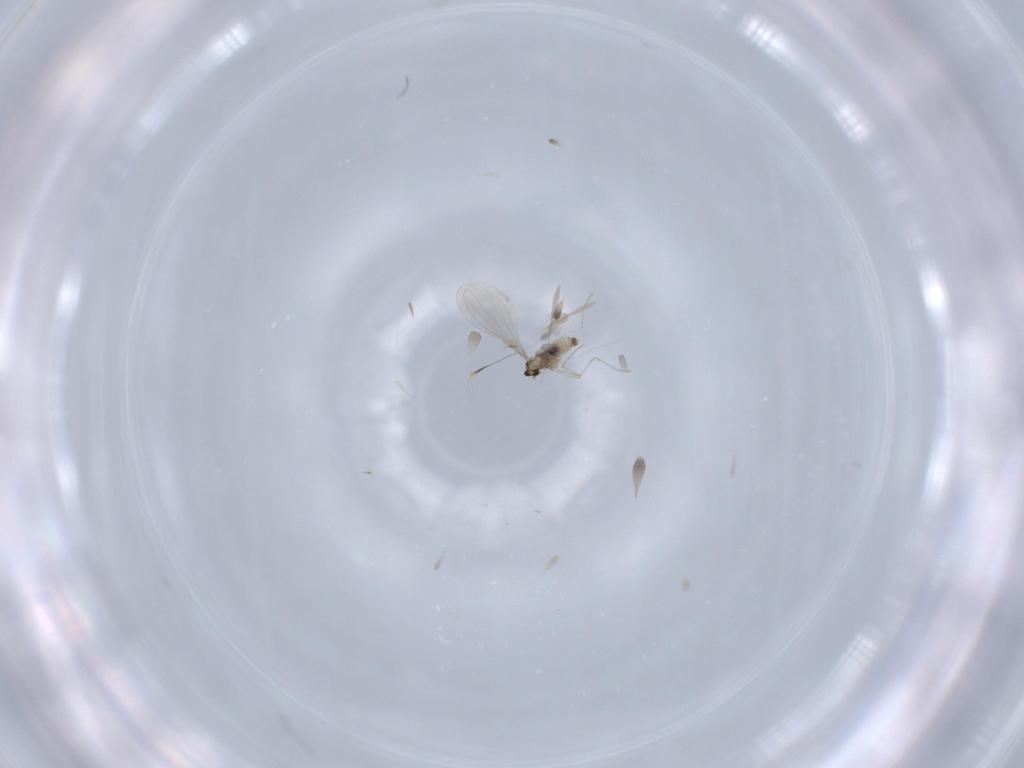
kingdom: Animalia
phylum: Arthropoda
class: Insecta
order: Diptera
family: Cecidomyiidae
